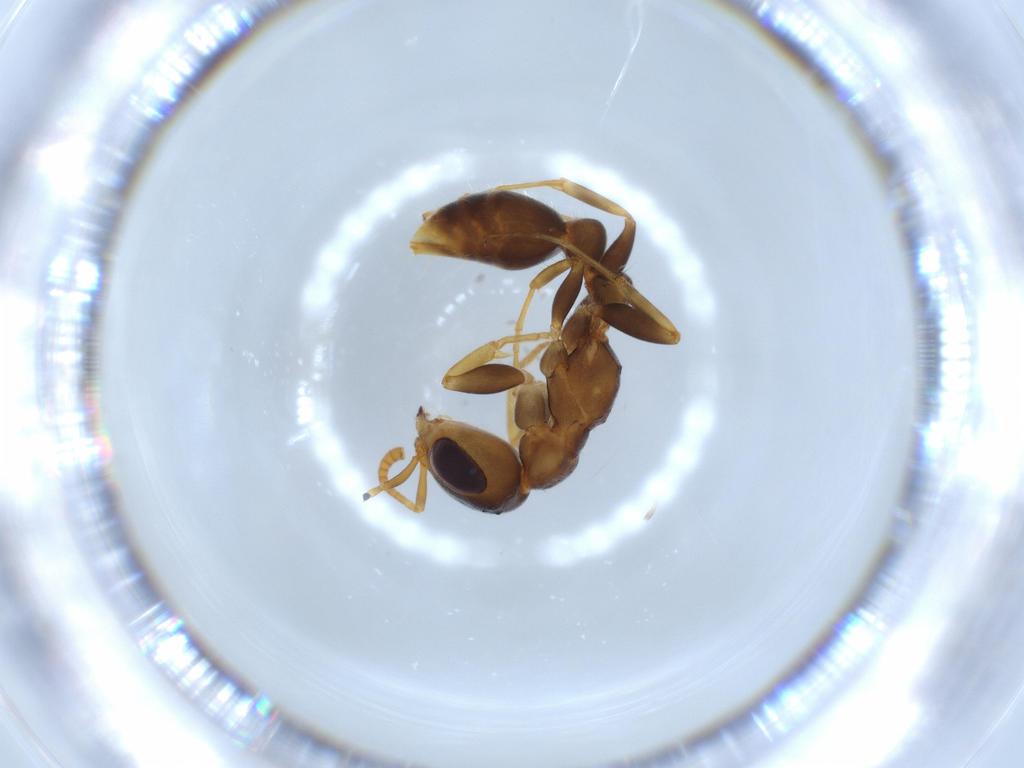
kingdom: Animalia
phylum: Arthropoda
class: Insecta
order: Hymenoptera
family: Formicidae
